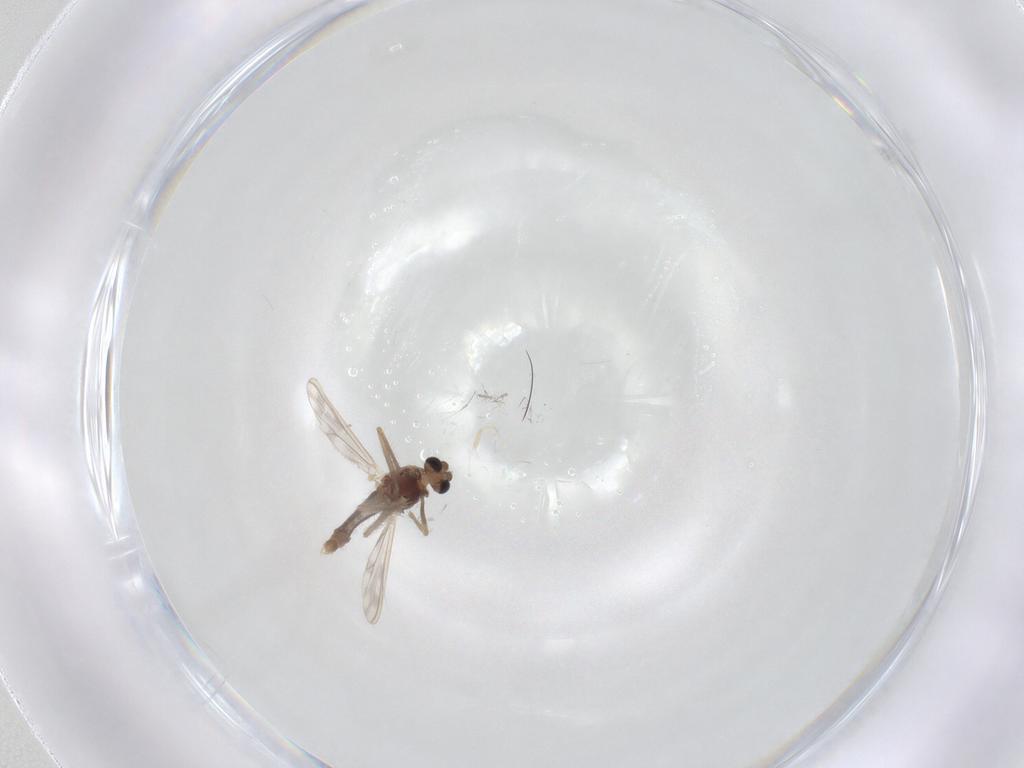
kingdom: Animalia
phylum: Arthropoda
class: Insecta
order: Diptera
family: Chironomidae
